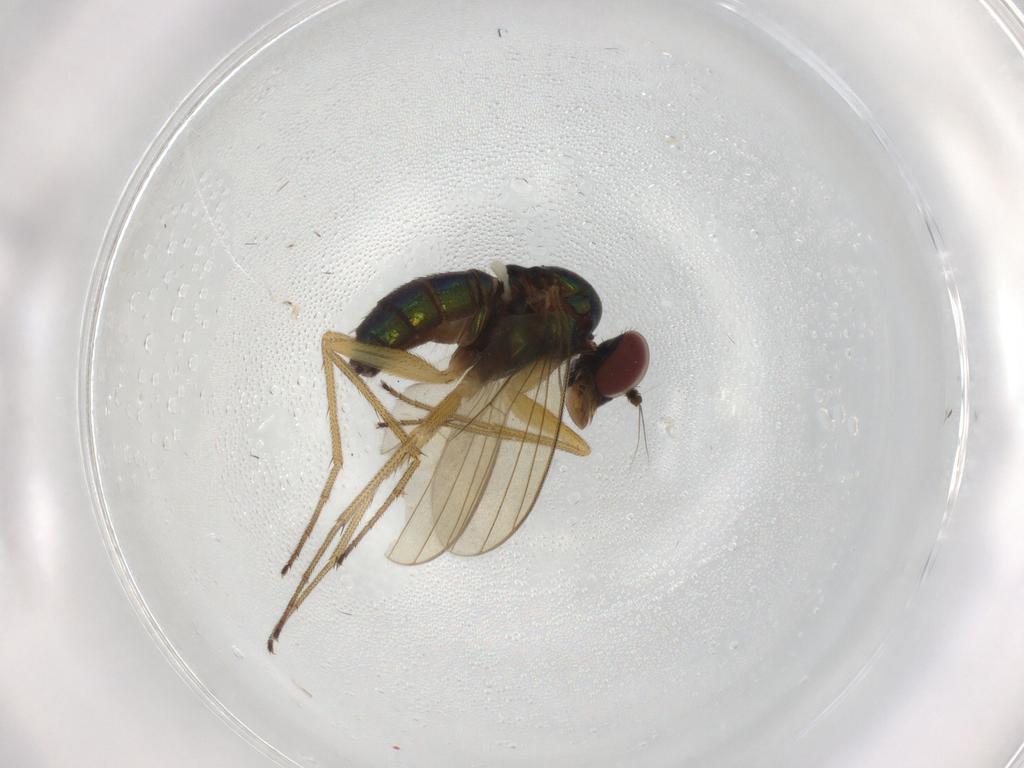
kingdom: Animalia
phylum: Arthropoda
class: Insecta
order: Diptera
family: Dolichopodidae
